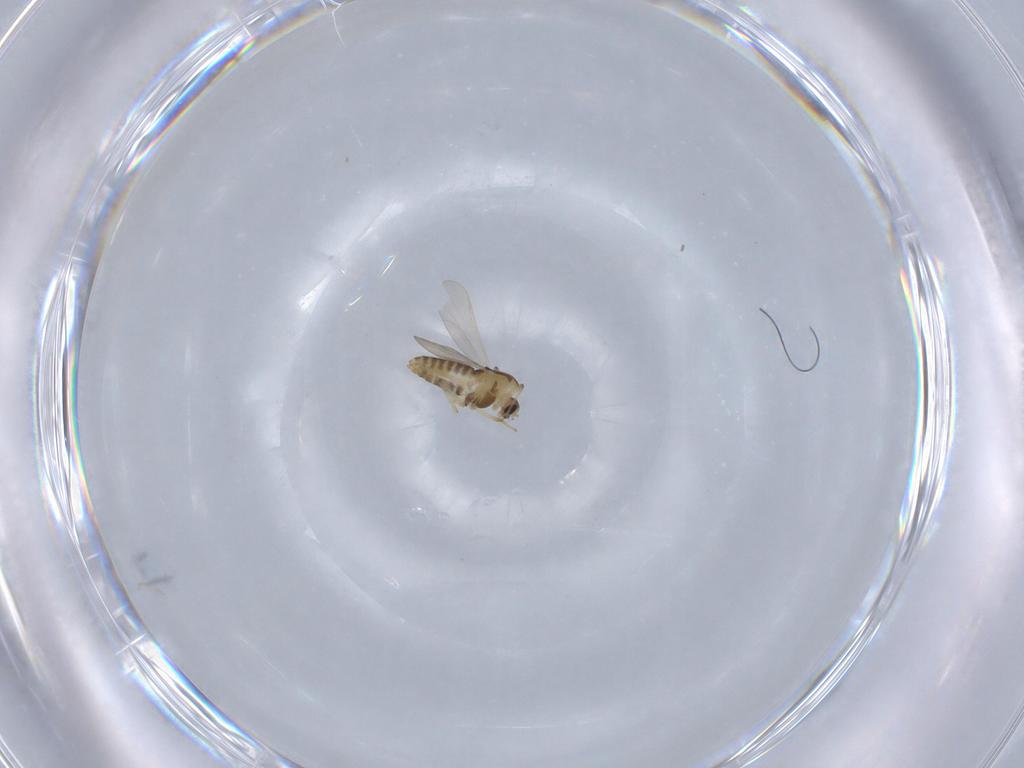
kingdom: Animalia
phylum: Arthropoda
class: Insecta
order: Diptera
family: Chironomidae
